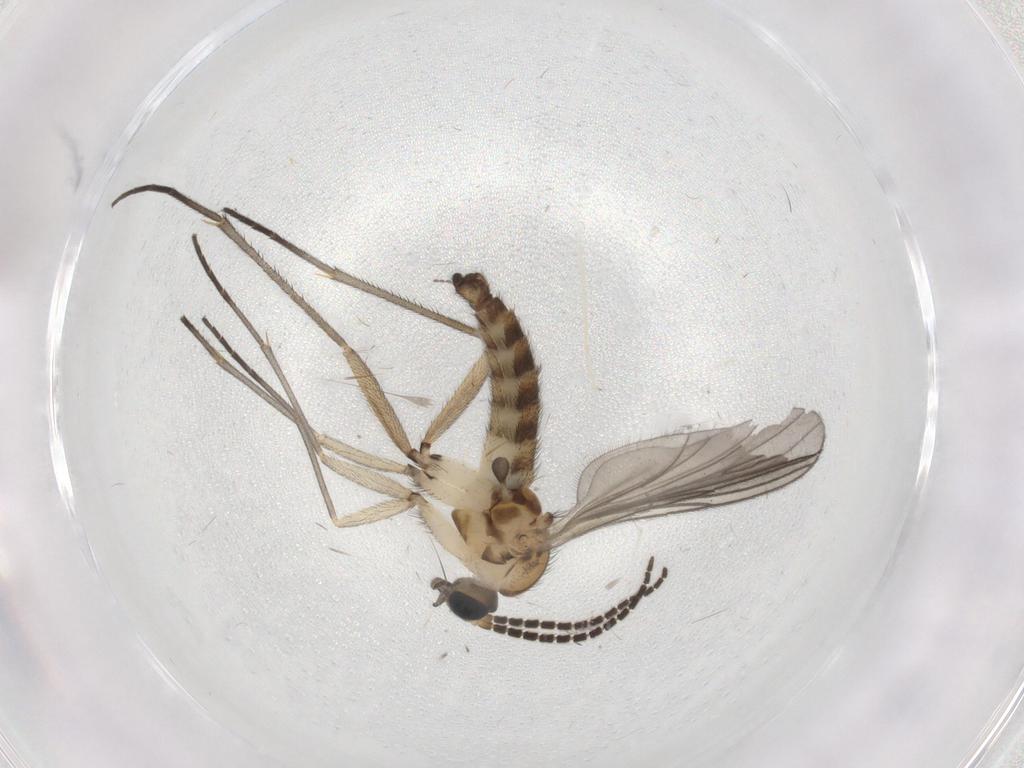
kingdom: Animalia
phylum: Arthropoda
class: Insecta
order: Diptera
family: Sciaridae
